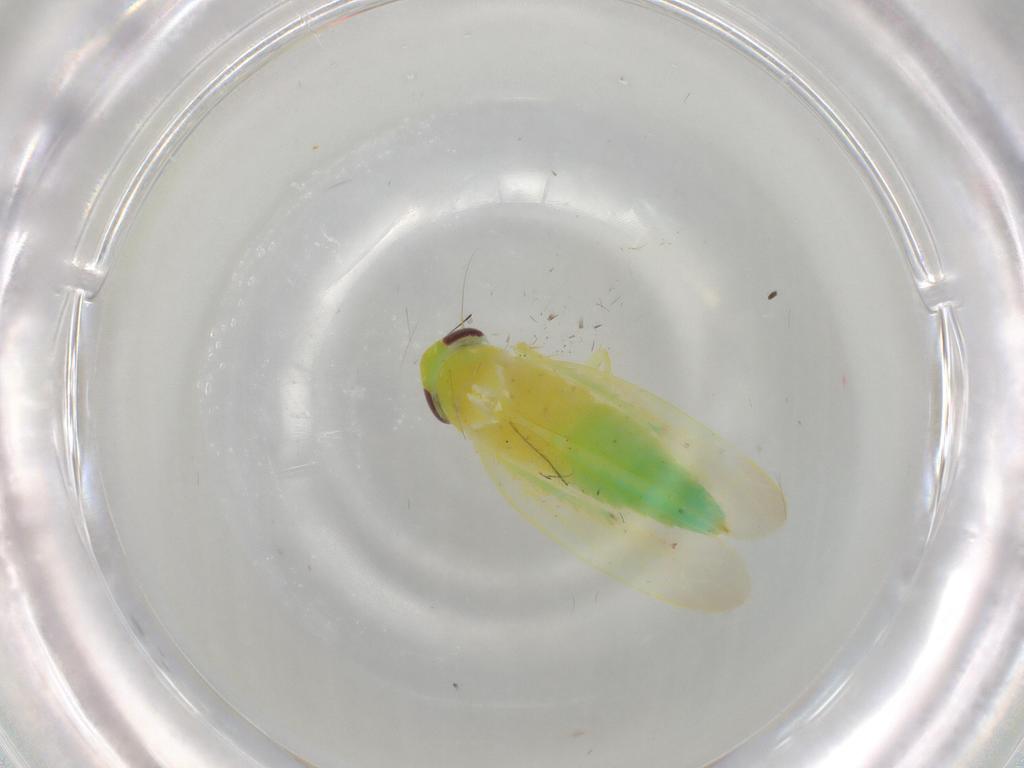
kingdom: Animalia
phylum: Arthropoda
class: Insecta
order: Hemiptera
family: Cicadellidae
